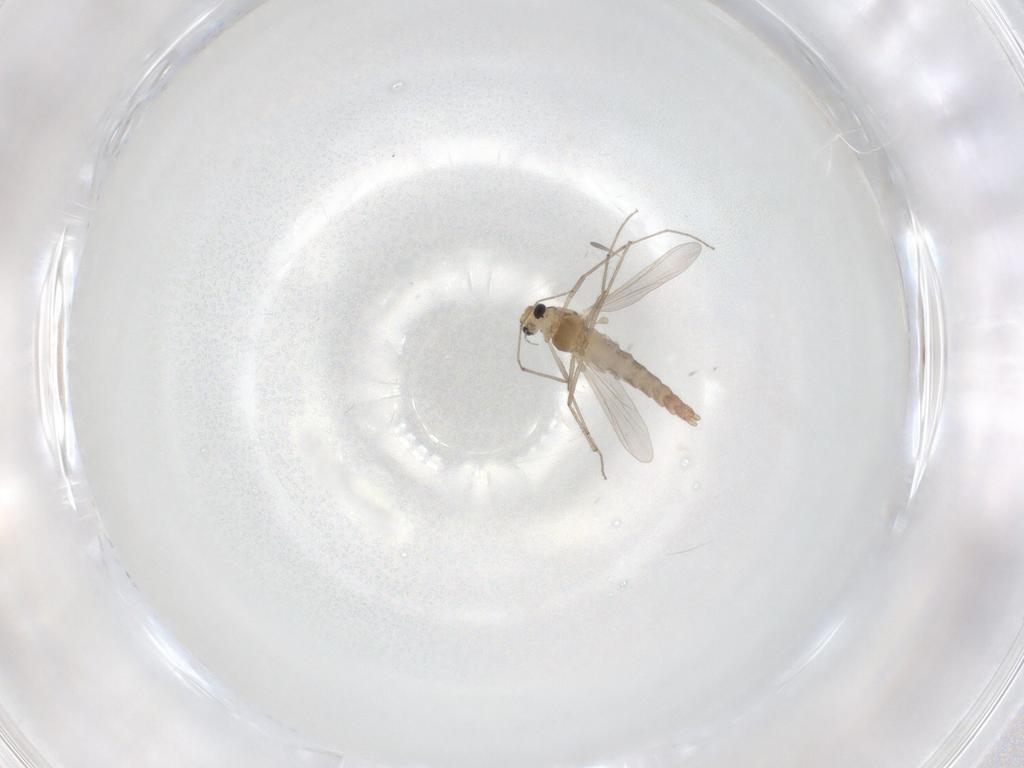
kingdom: Animalia
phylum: Arthropoda
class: Insecta
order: Diptera
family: Chironomidae
